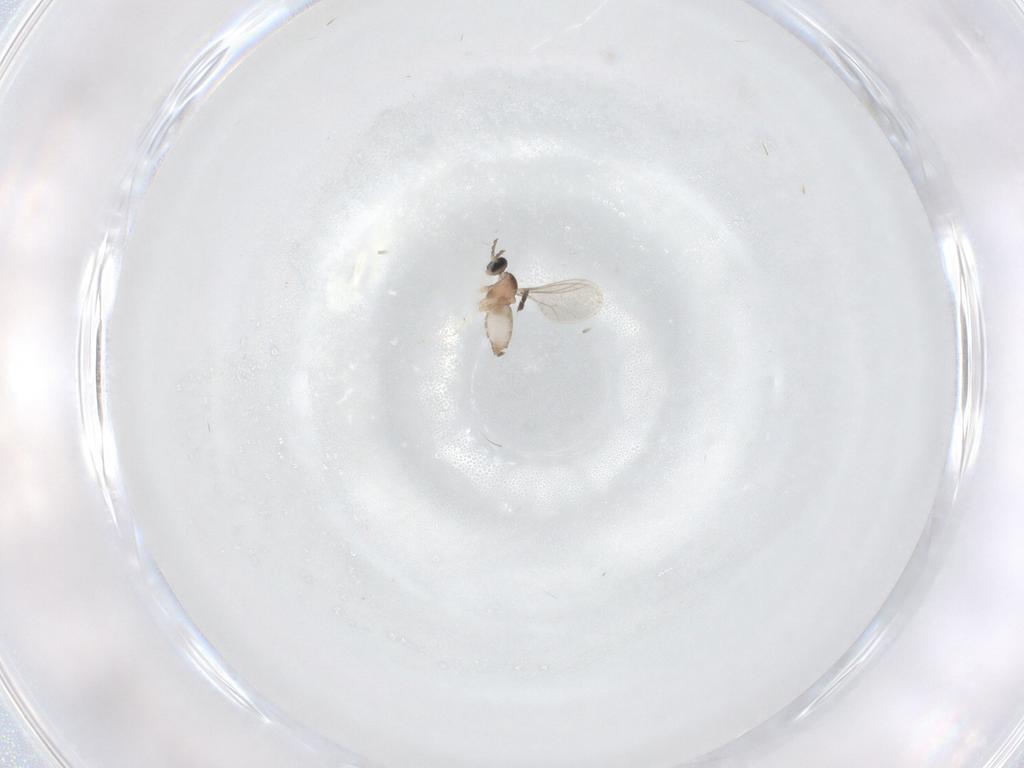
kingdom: Animalia
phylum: Arthropoda
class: Insecta
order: Diptera
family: Cecidomyiidae
